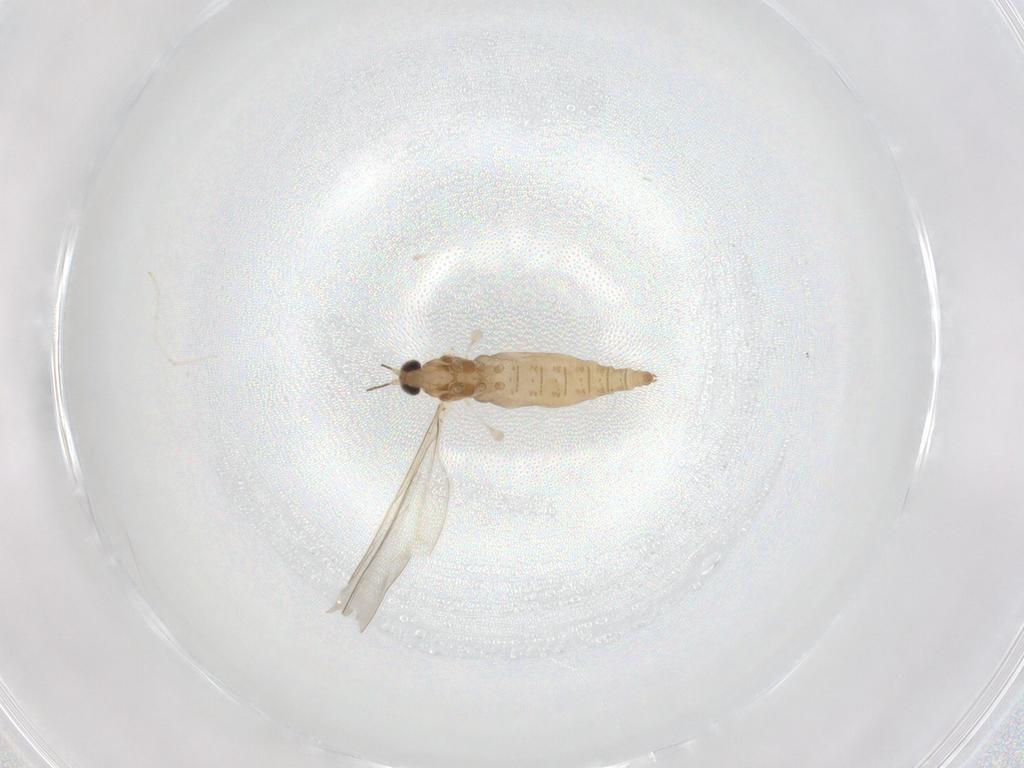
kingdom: Animalia
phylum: Arthropoda
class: Insecta
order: Diptera
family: Cecidomyiidae
